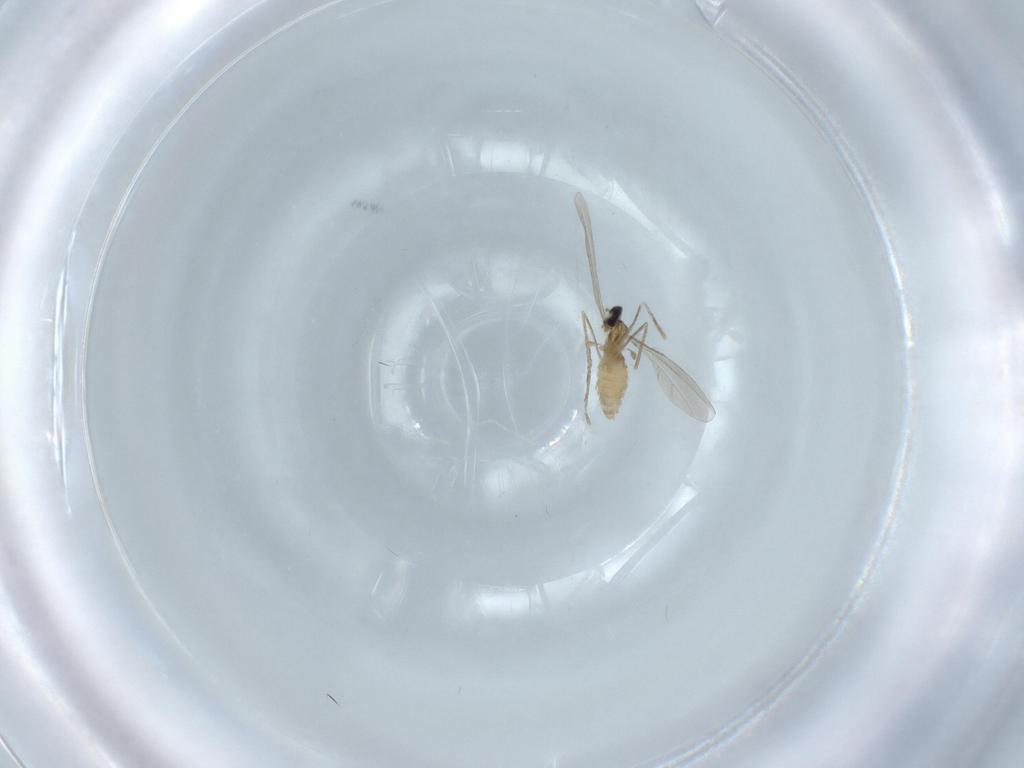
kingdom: Animalia
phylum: Arthropoda
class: Insecta
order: Diptera
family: Cecidomyiidae
